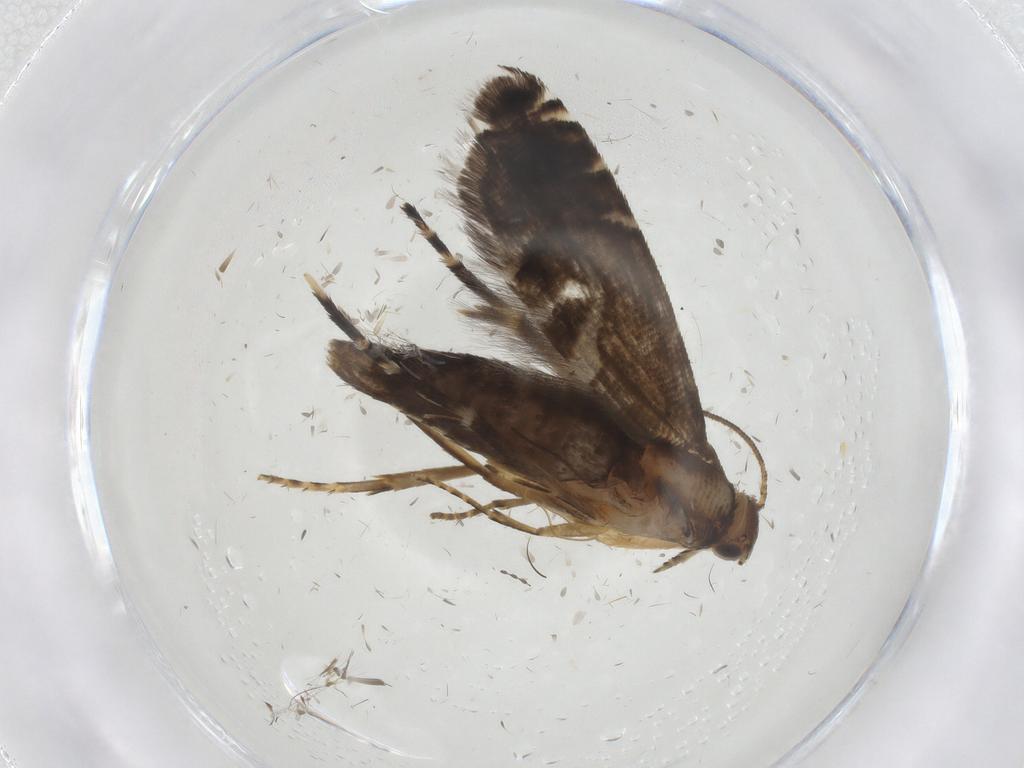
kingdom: Animalia
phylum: Arthropoda
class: Insecta
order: Lepidoptera
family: Glyphipterigidae
